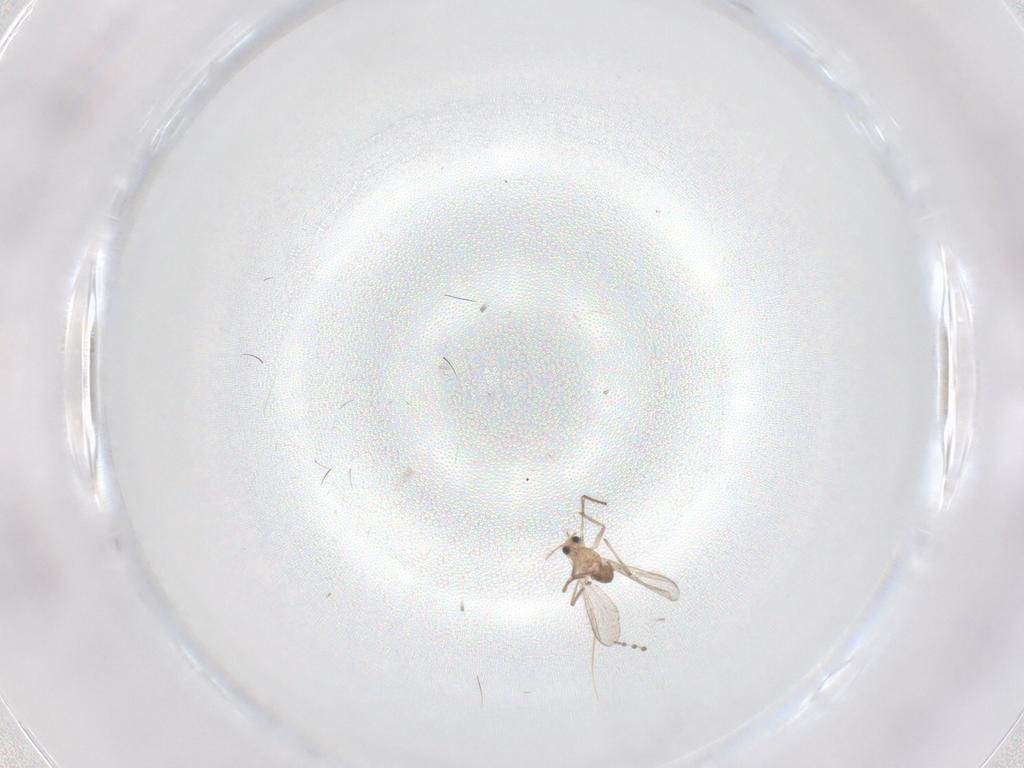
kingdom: Animalia
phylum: Arthropoda
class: Insecta
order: Diptera
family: Chironomidae
